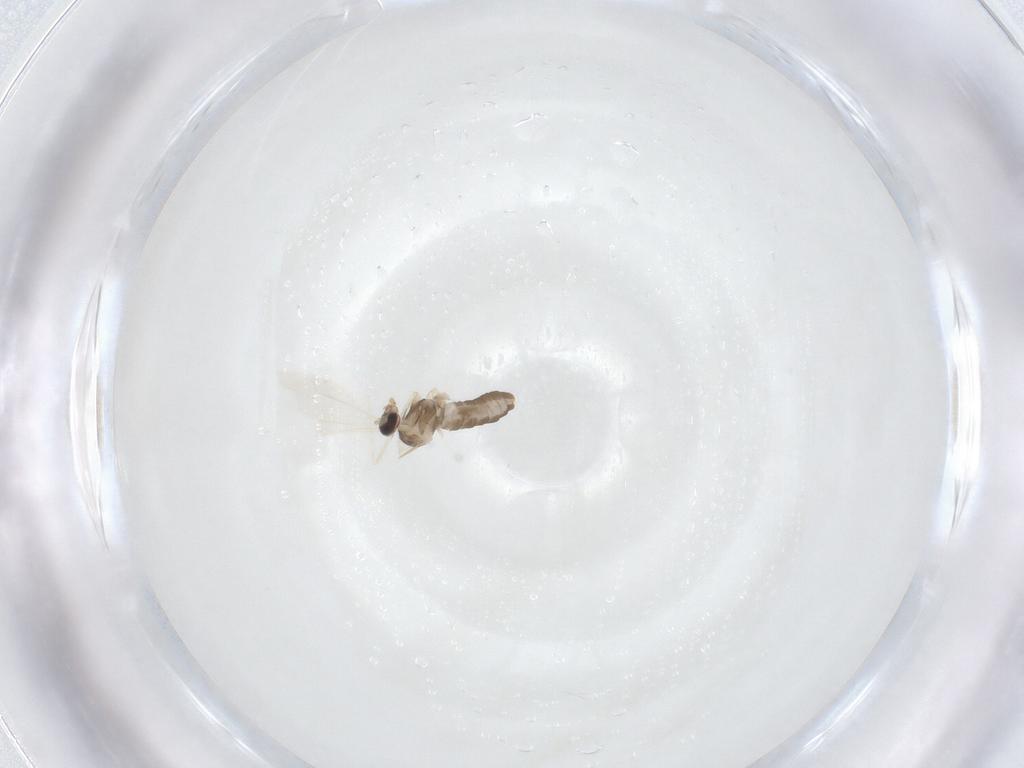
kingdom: Animalia
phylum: Arthropoda
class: Insecta
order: Diptera
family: Cecidomyiidae
